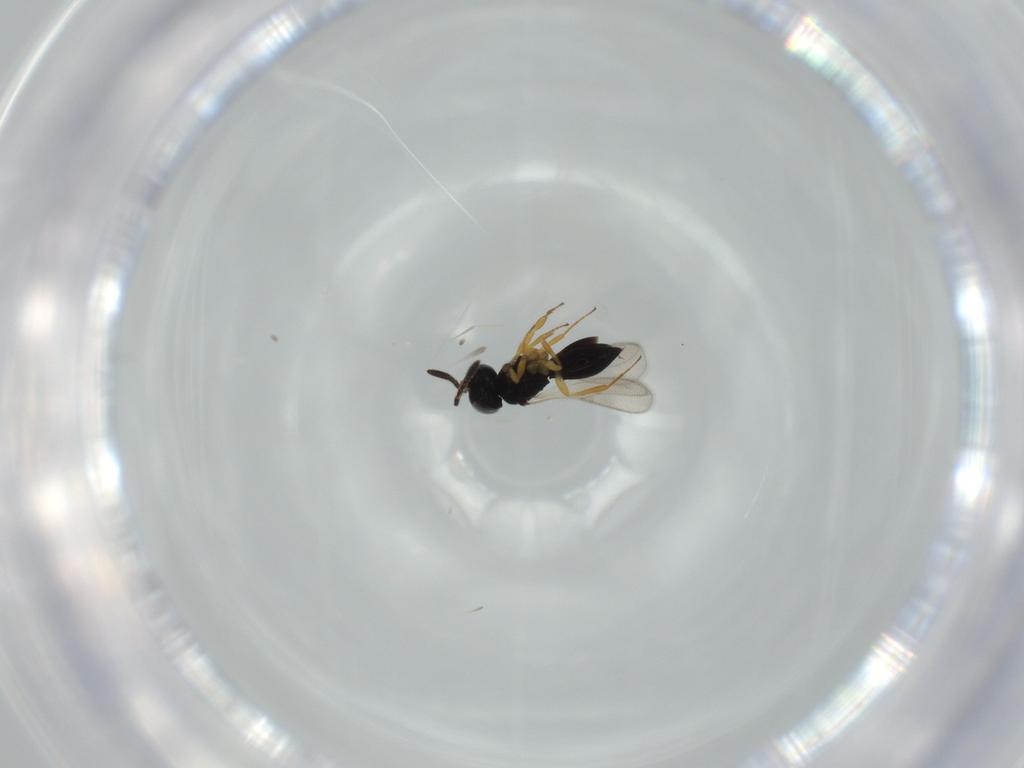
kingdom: Animalia
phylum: Arthropoda
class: Insecta
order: Hymenoptera
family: Scelionidae
